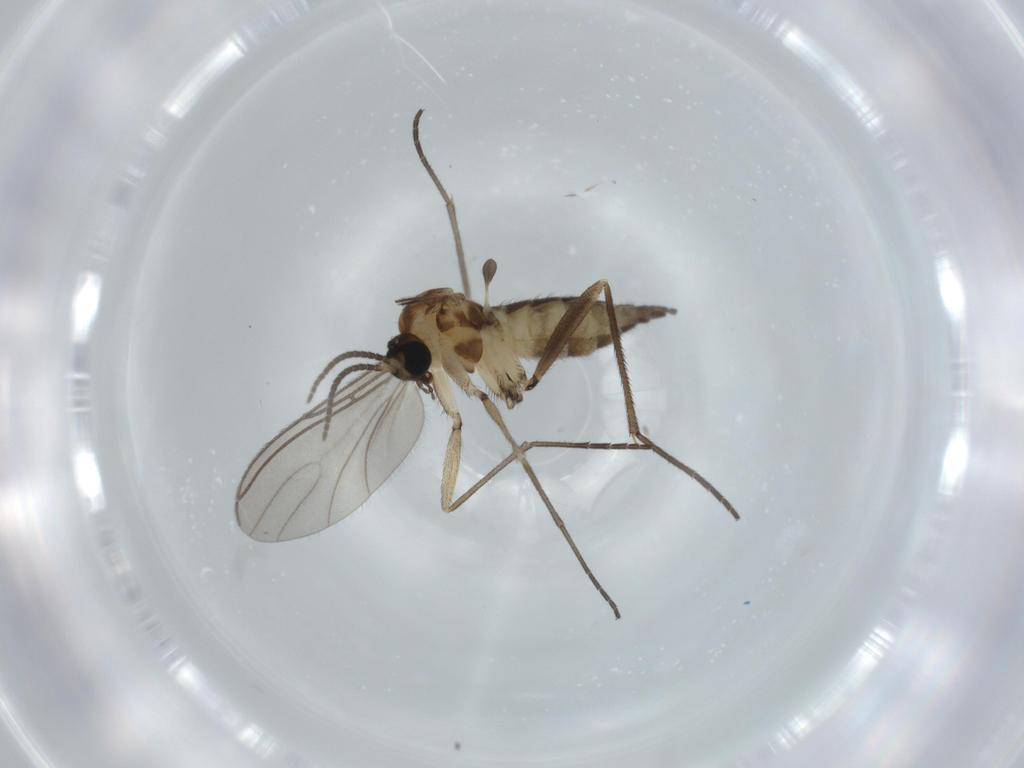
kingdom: Animalia
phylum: Arthropoda
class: Insecta
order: Diptera
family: Sciaridae
